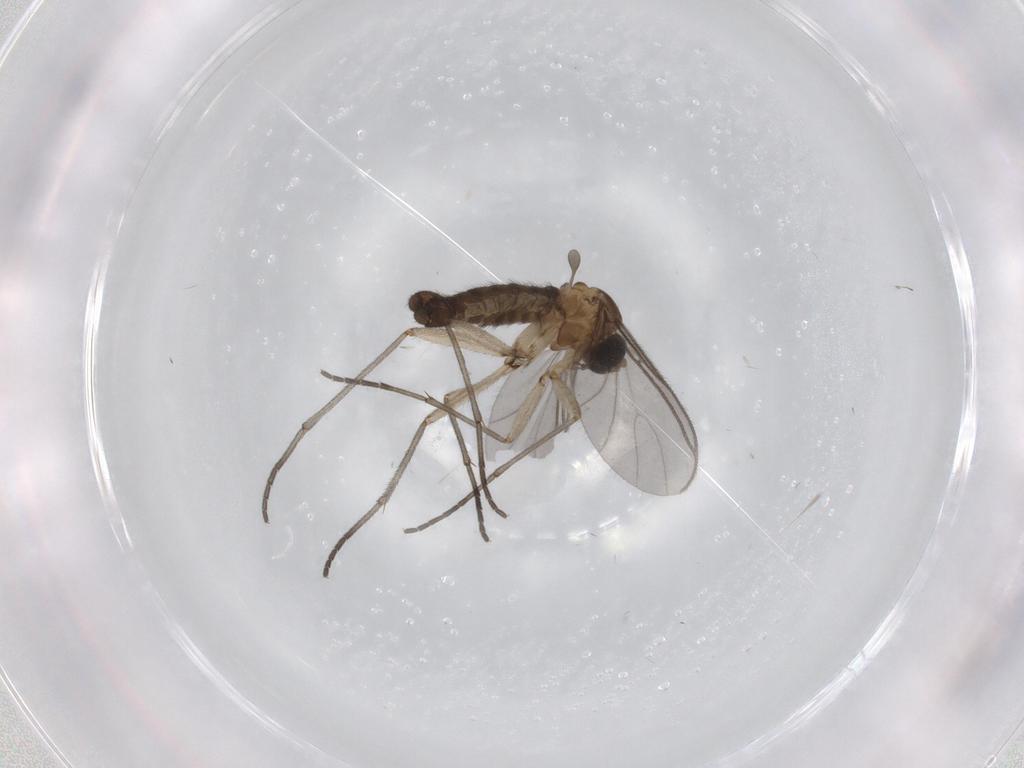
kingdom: Animalia
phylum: Arthropoda
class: Insecta
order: Diptera
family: Sciaridae
